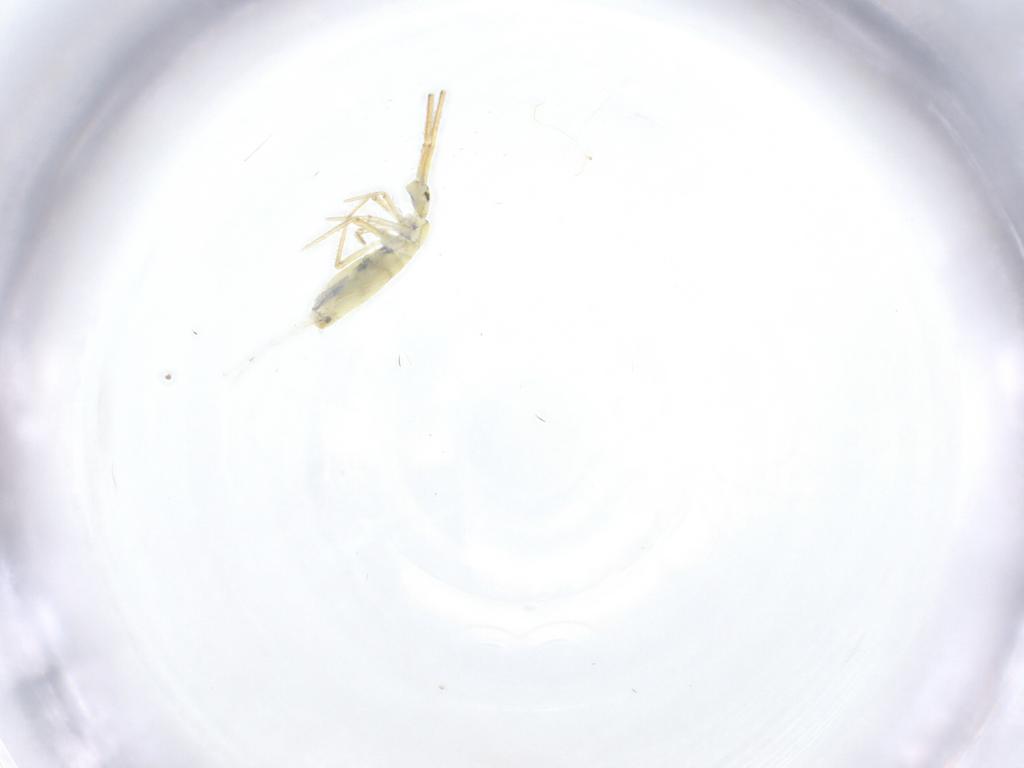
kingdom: Animalia
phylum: Arthropoda
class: Collembola
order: Entomobryomorpha
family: Paronellidae
